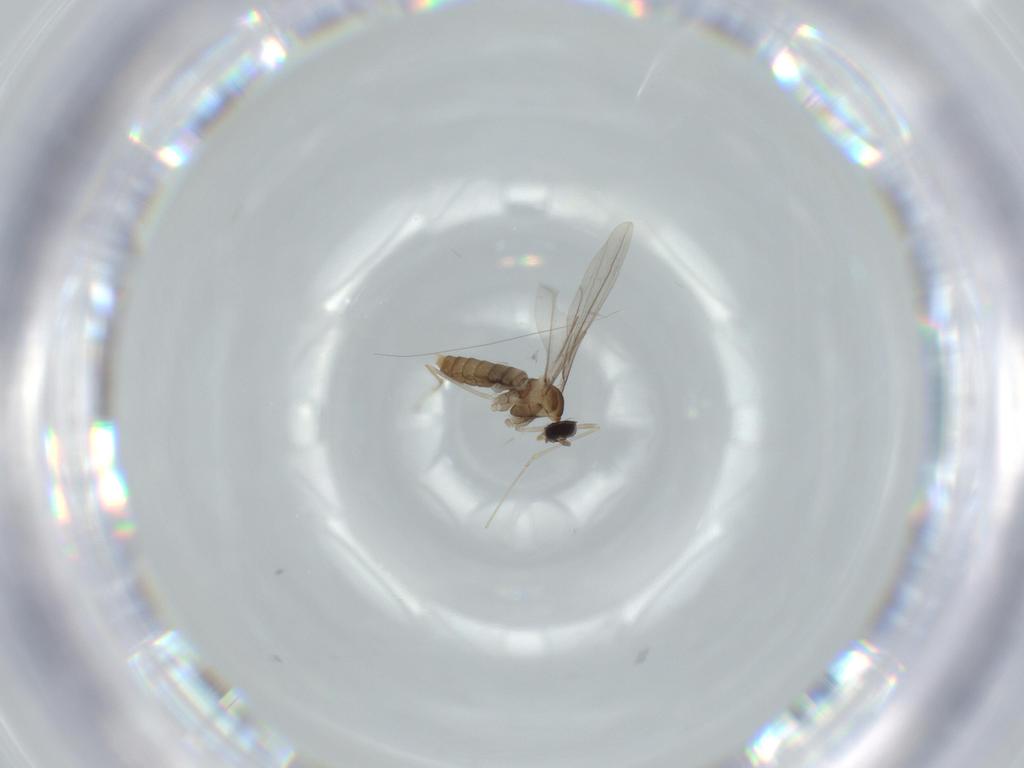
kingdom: Animalia
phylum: Arthropoda
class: Insecta
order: Diptera
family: Cecidomyiidae
